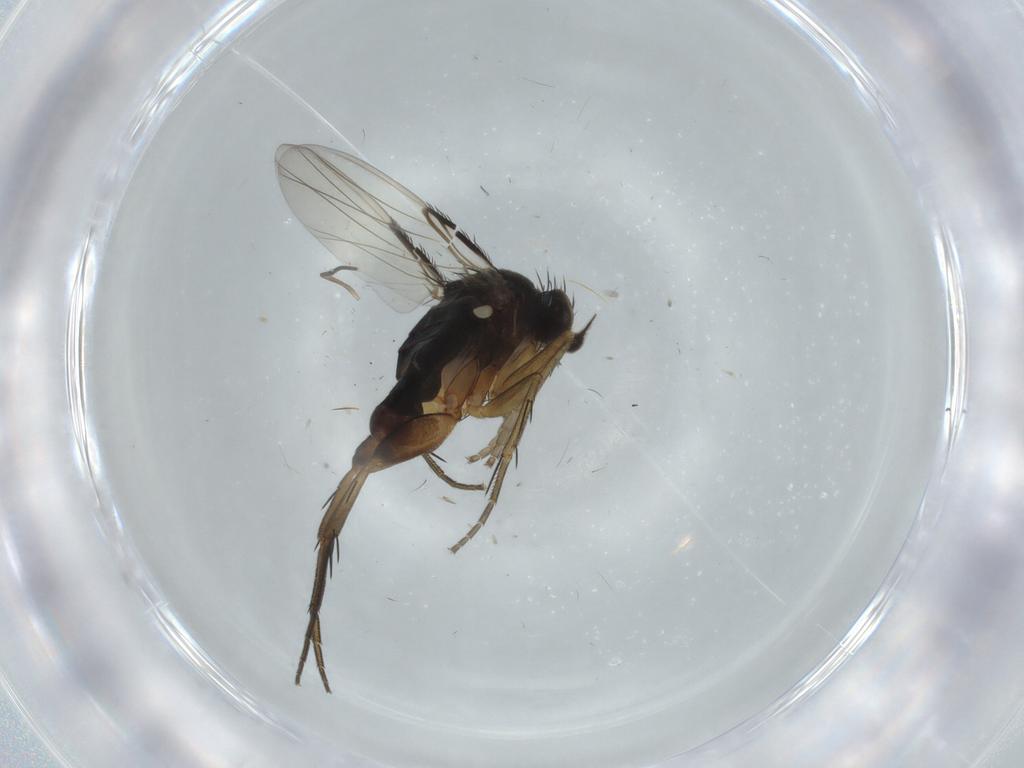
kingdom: Animalia
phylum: Arthropoda
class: Insecta
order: Diptera
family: Phoridae
